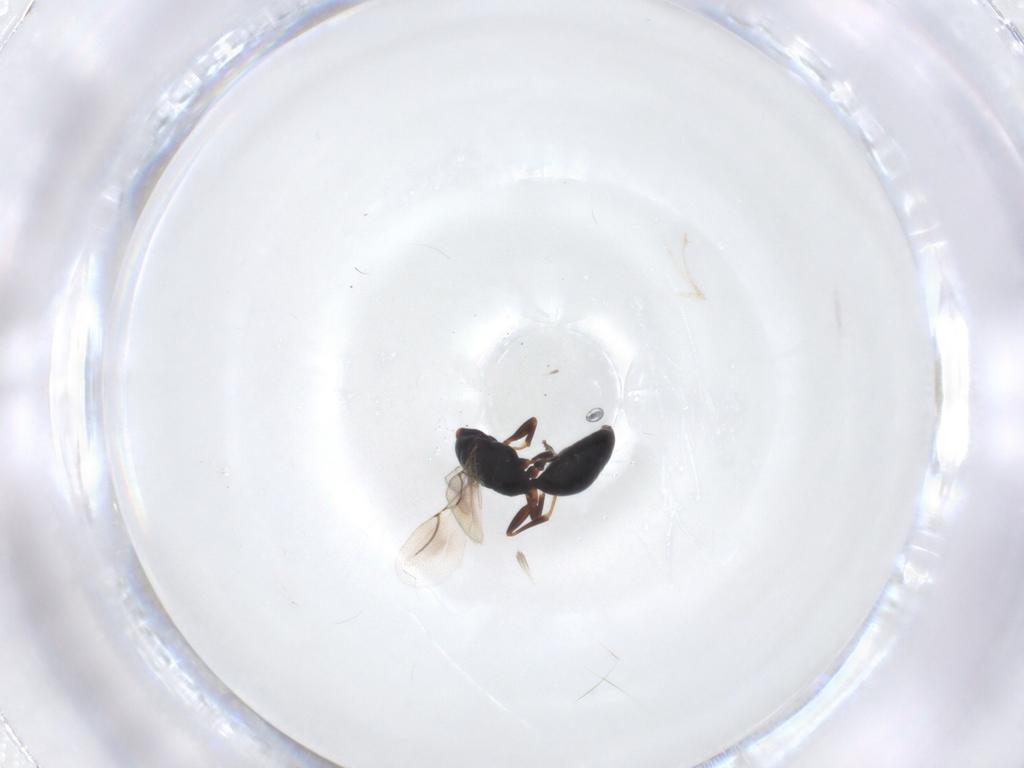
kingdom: Animalia
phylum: Arthropoda
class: Insecta
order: Hymenoptera
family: Bethylidae
